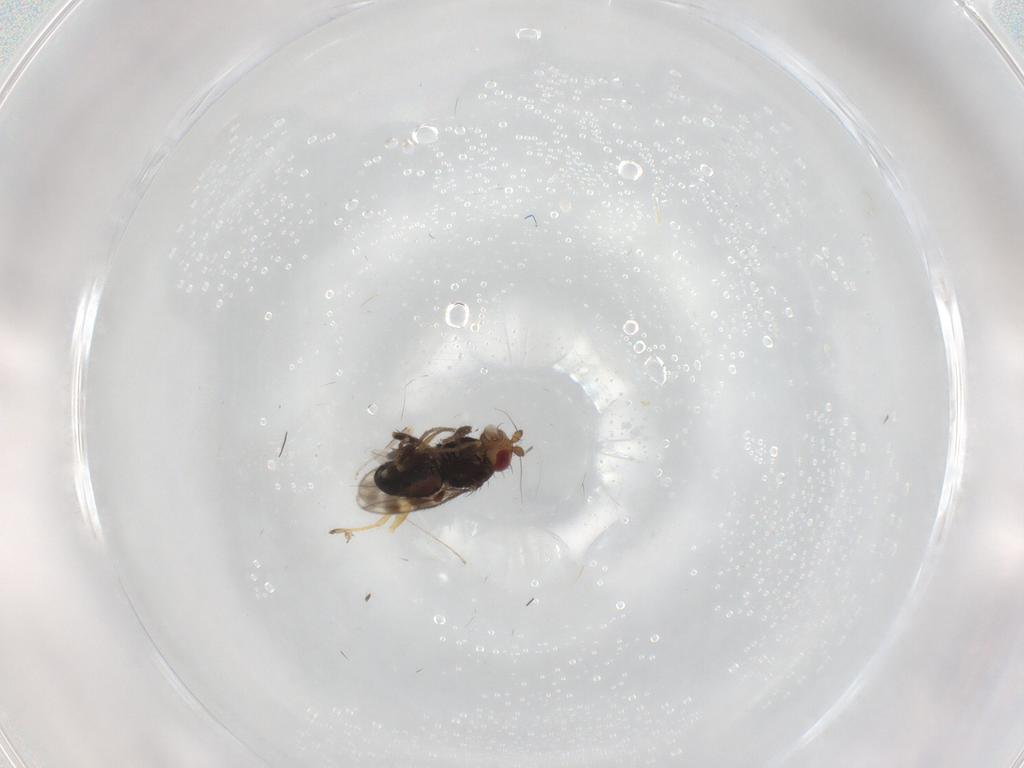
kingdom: Animalia
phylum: Arthropoda
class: Insecta
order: Diptera
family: Sphaeroceridae
